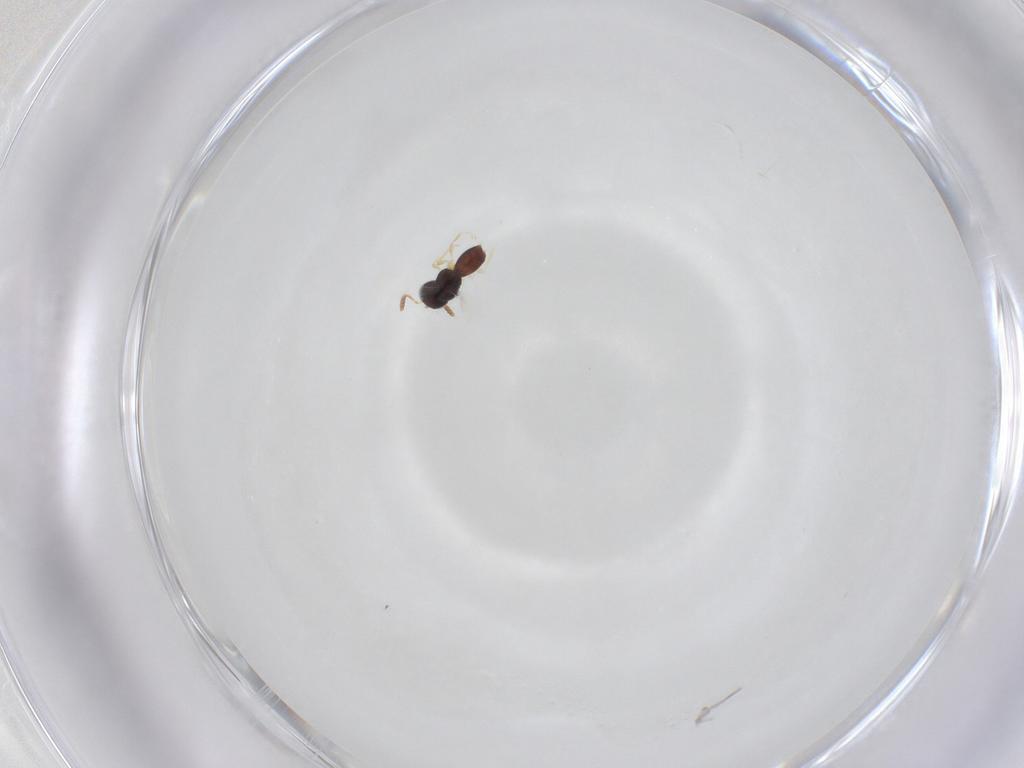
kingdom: Animalia
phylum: Arthropoda
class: Insecta
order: Hymenoptera
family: Scelionidae
